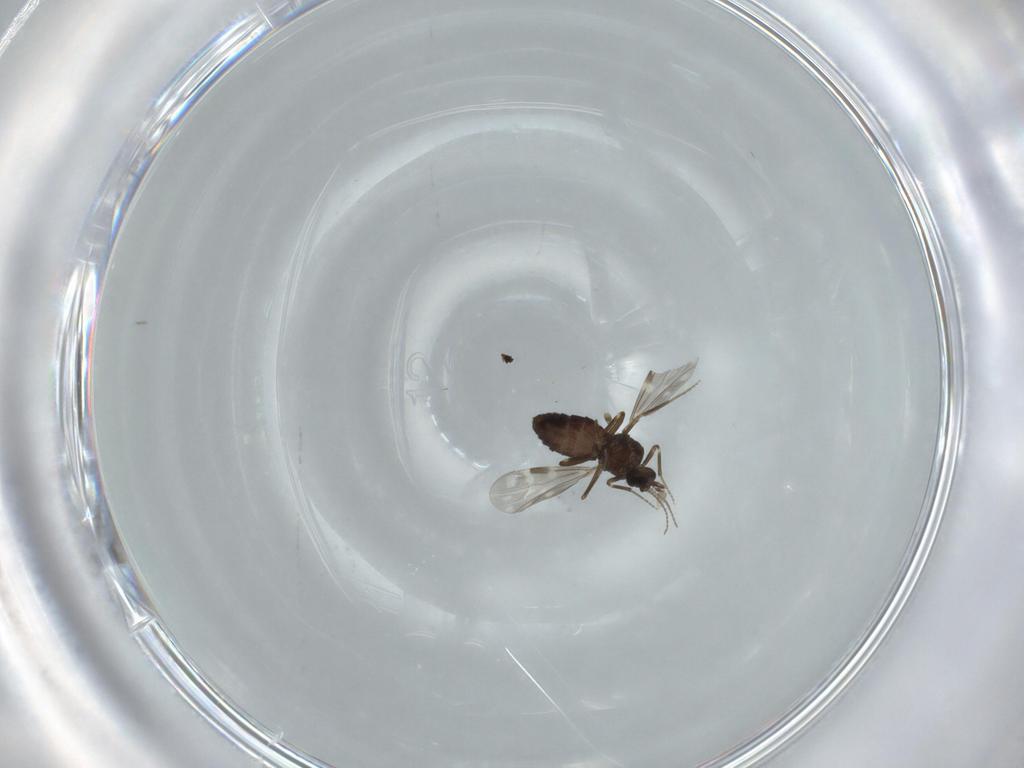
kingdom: Animalia
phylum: Arthropoda
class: Insecta
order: Diptera
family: Ceratopogonidae
